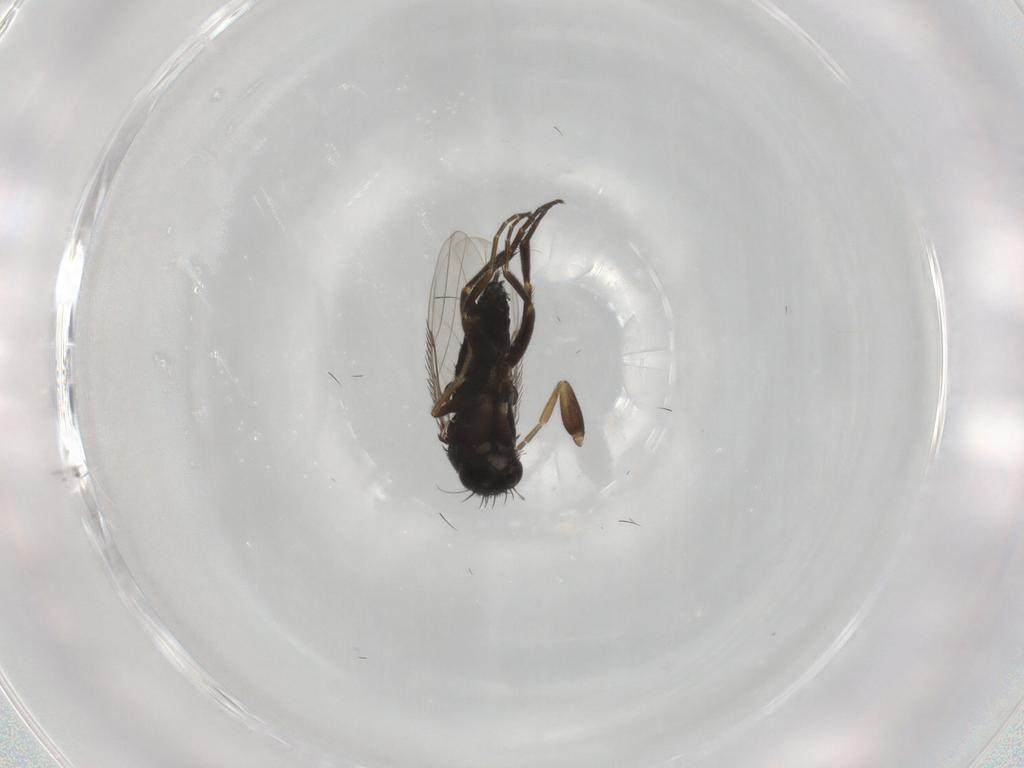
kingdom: Animalia
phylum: Arthropoda
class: Insecta
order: Diptera
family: Phoridae
